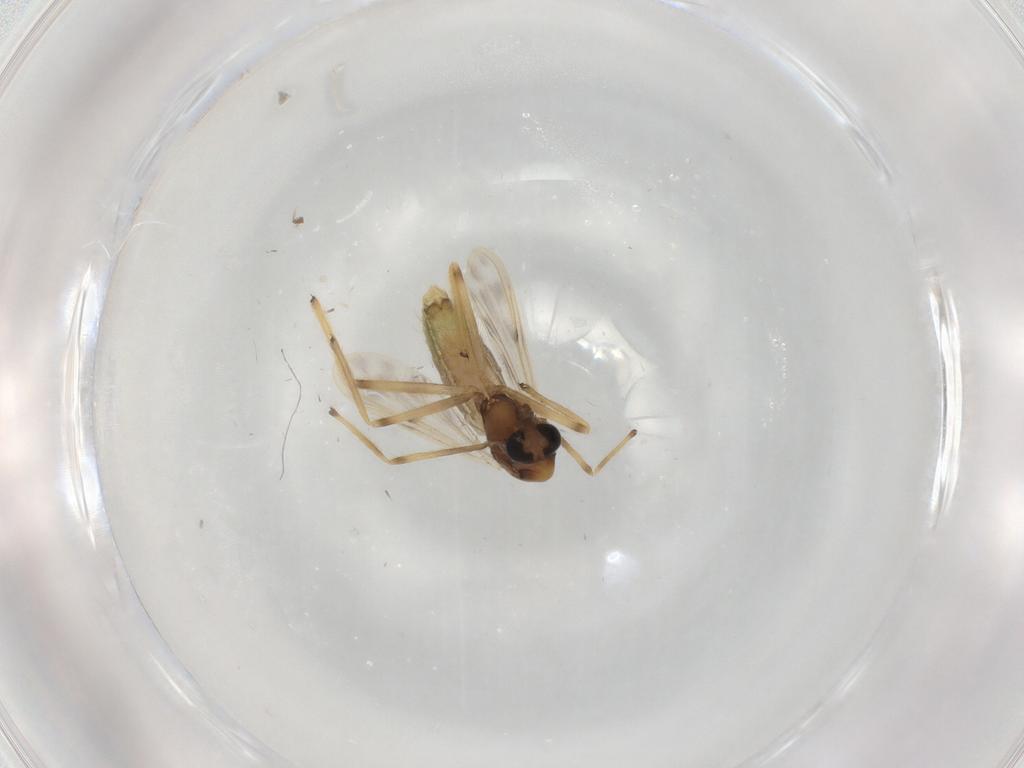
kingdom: Animalia
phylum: Arthropoda
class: Insecta
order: Diptera
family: Chironomidae
